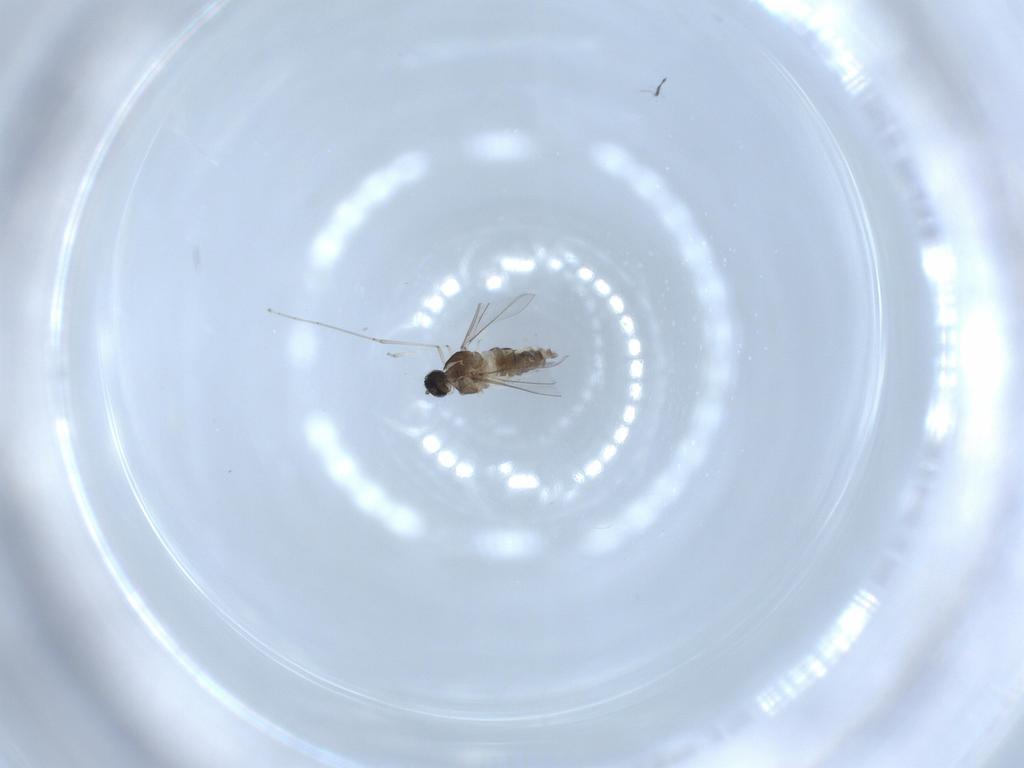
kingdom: Animalia
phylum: Arthropoda
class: Insecta
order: Diptera
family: Cecidomyiidae
